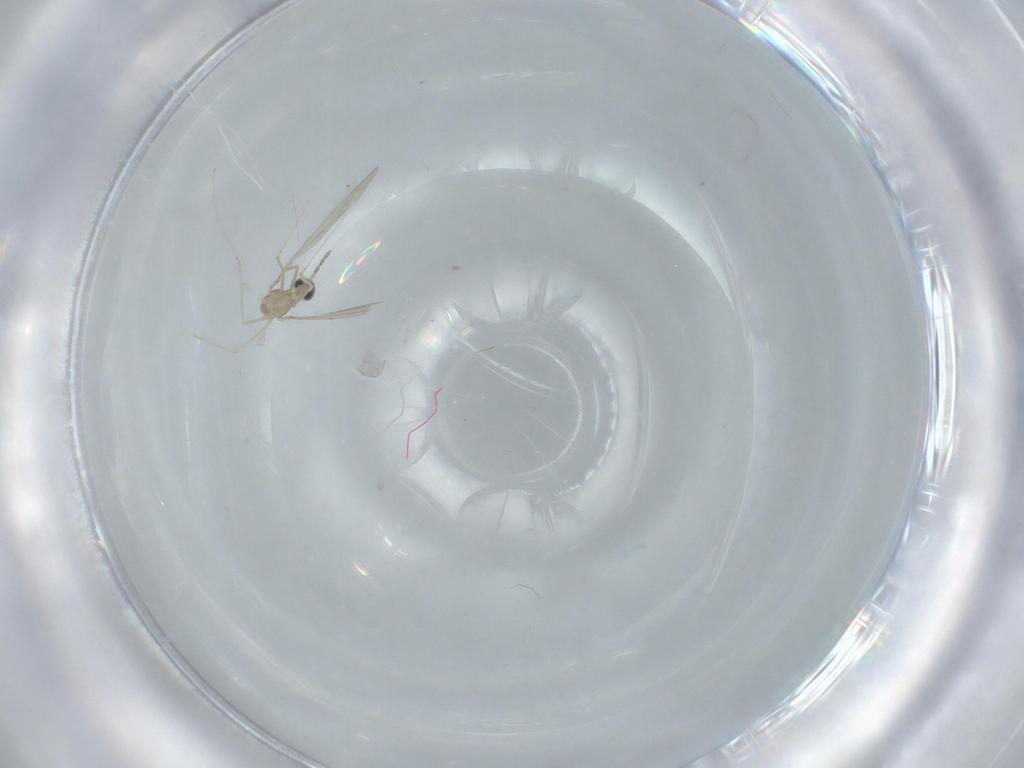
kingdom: Animalia
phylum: Arthropoda
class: Insecta
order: Diptera
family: Cecidomyiidae
